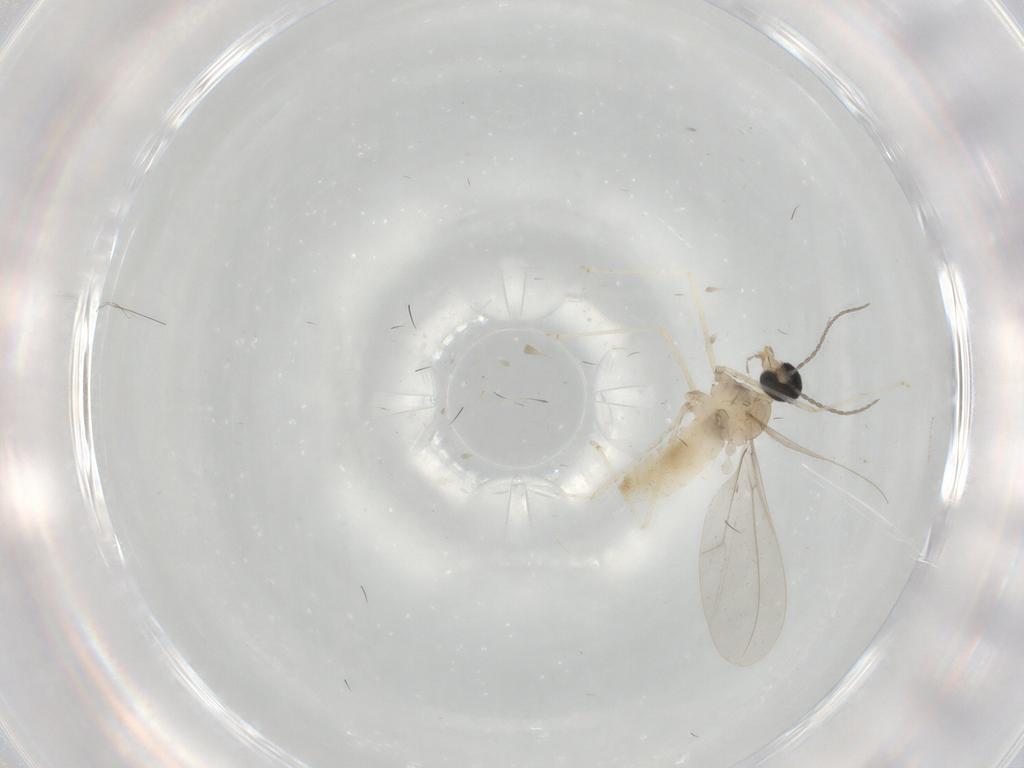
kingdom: Animalia
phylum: Arthropoda
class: Insecta
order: Diptera
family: Cecidomyiidae
